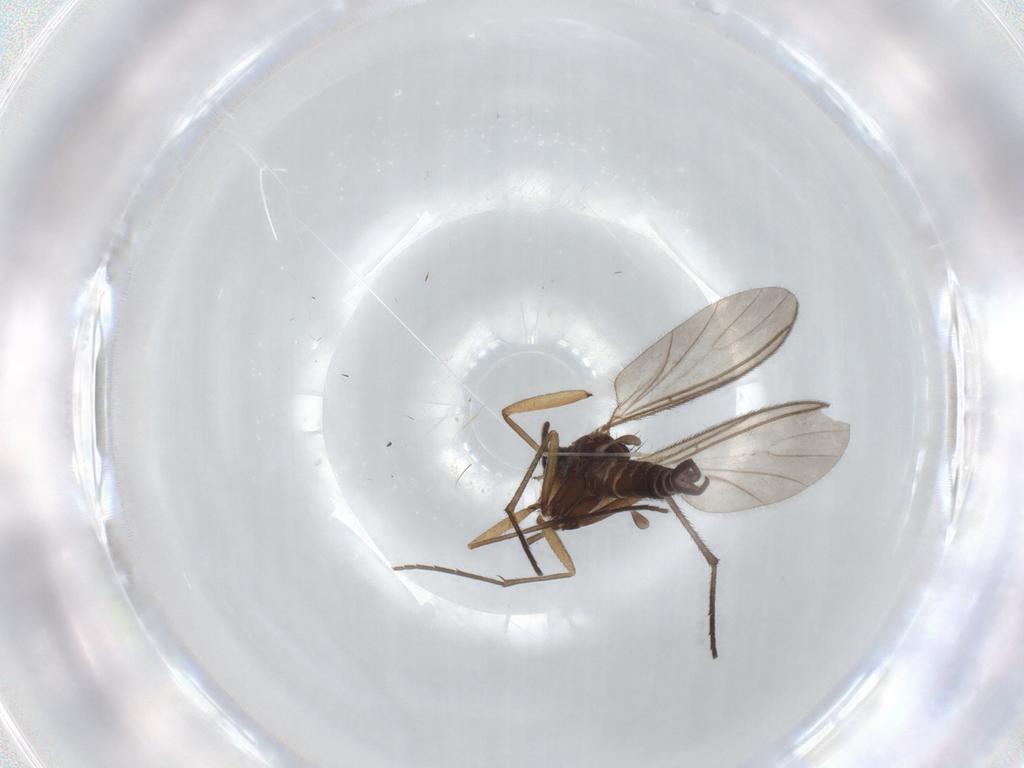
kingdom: Animalia
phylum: Arthropoda
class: Insecta
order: Diptera
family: Sciaridae
